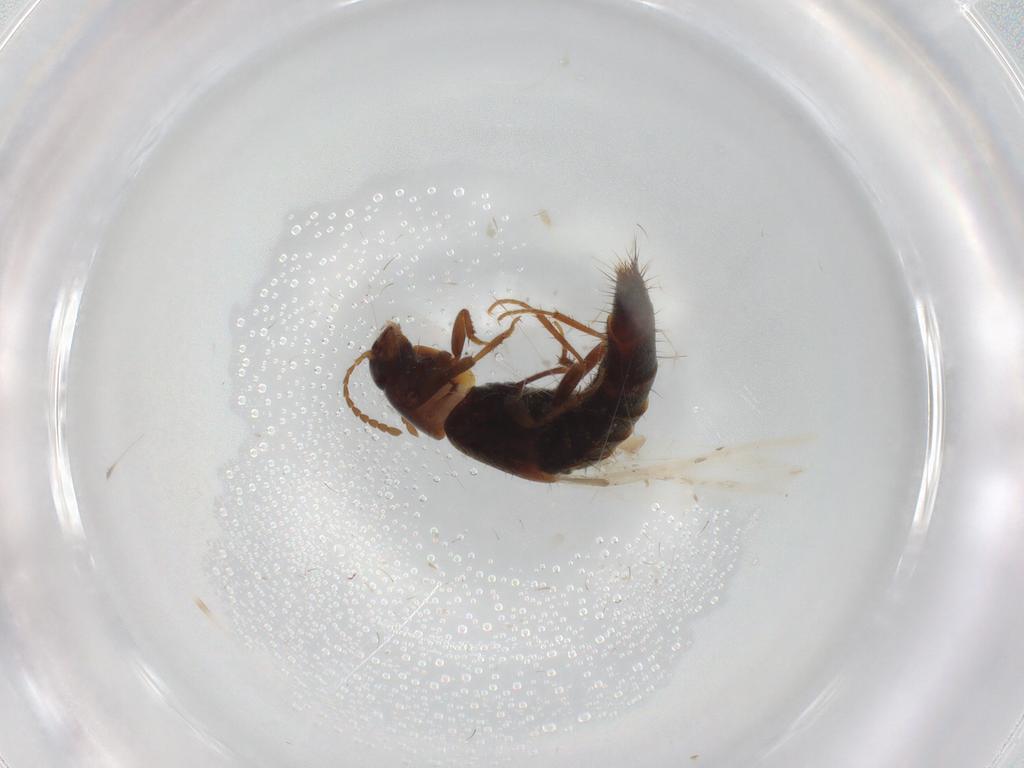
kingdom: Animalia
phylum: Arthropoda
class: Insecta
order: Coleoptera
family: Staphylinidae
